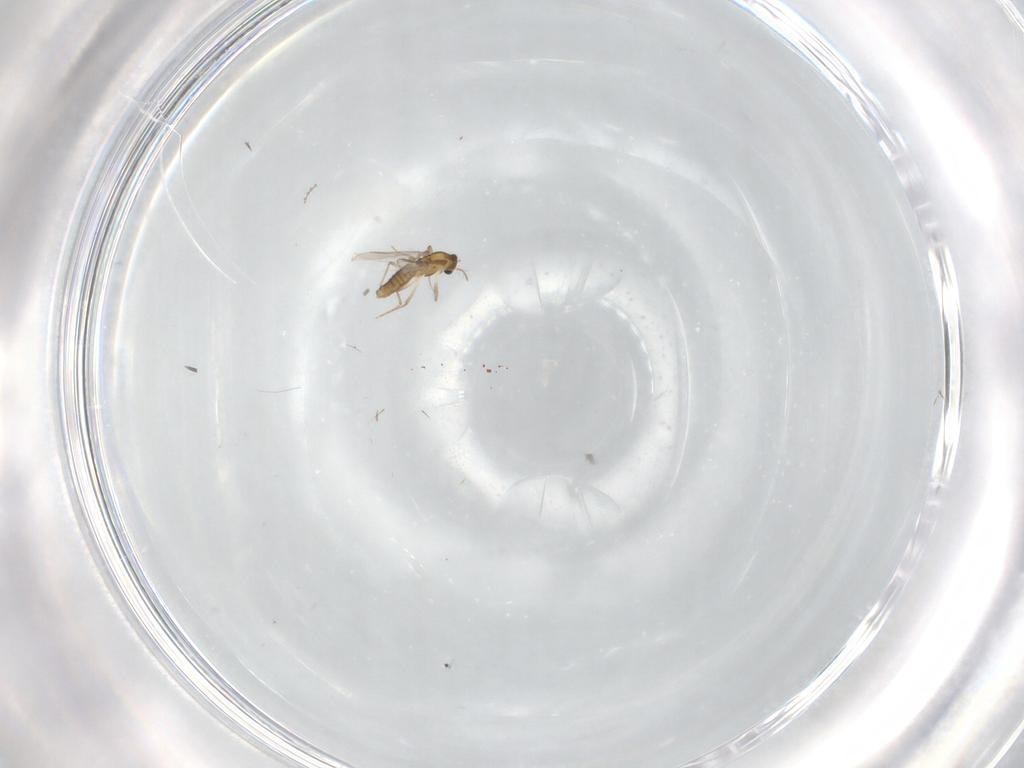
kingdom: Animalia
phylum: Arthropoda
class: Insecta
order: Diptera
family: Chironomidae
